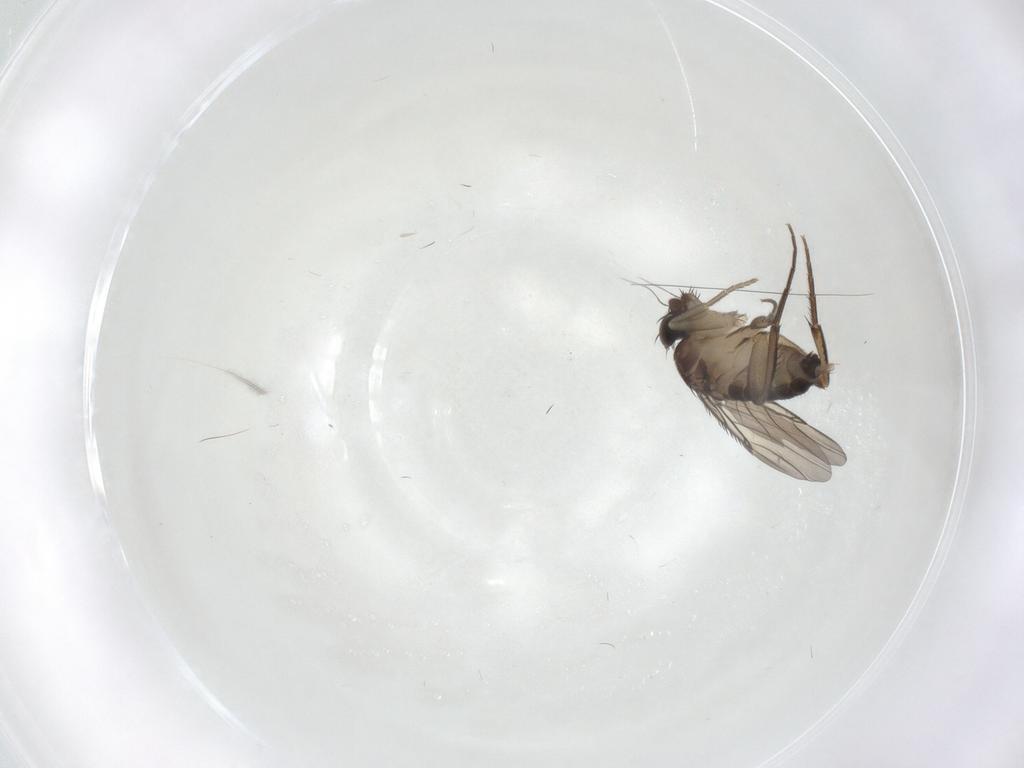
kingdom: Animalia
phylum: Arthropoda
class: Insecta
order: Diptera
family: Phoridae
